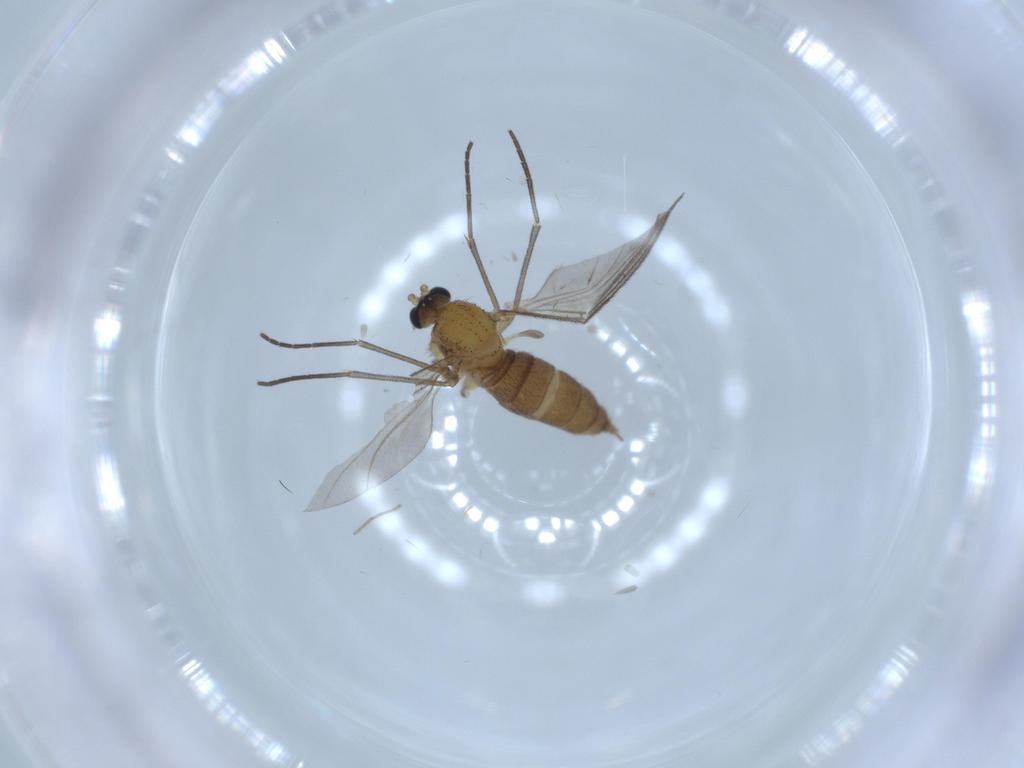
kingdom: Animalia
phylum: Arthropoda
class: Insecta
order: Diptera
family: Sciaridae
